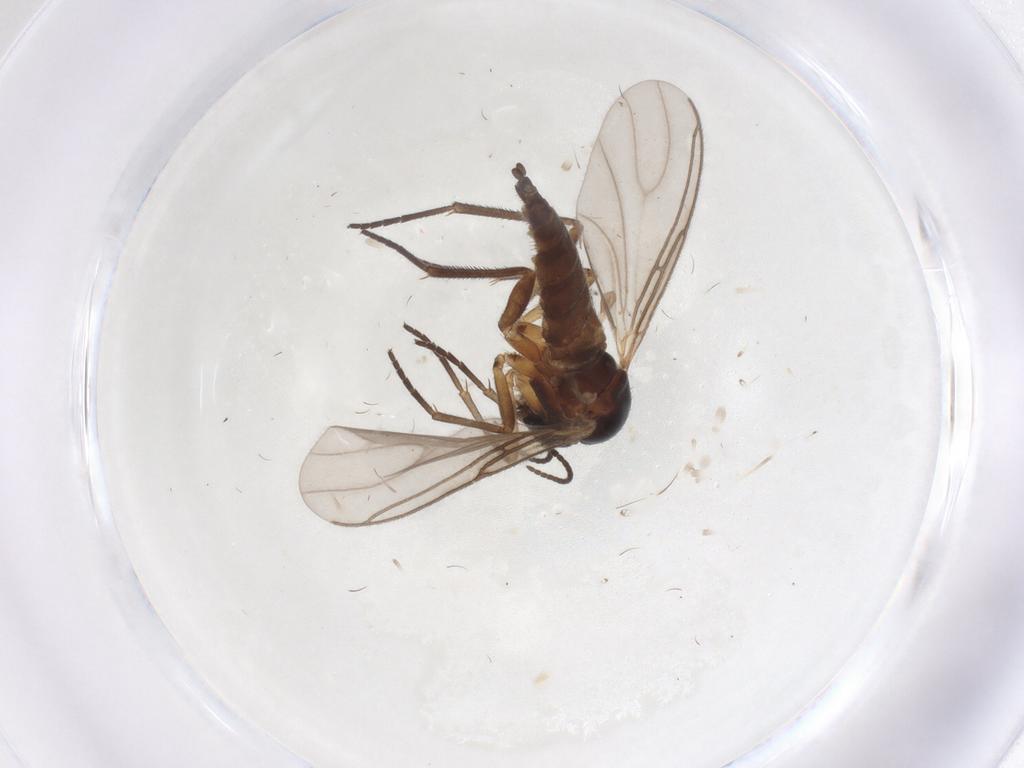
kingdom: Animalia
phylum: Arthropoda
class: Insecta
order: Diptera
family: Sciaridae
